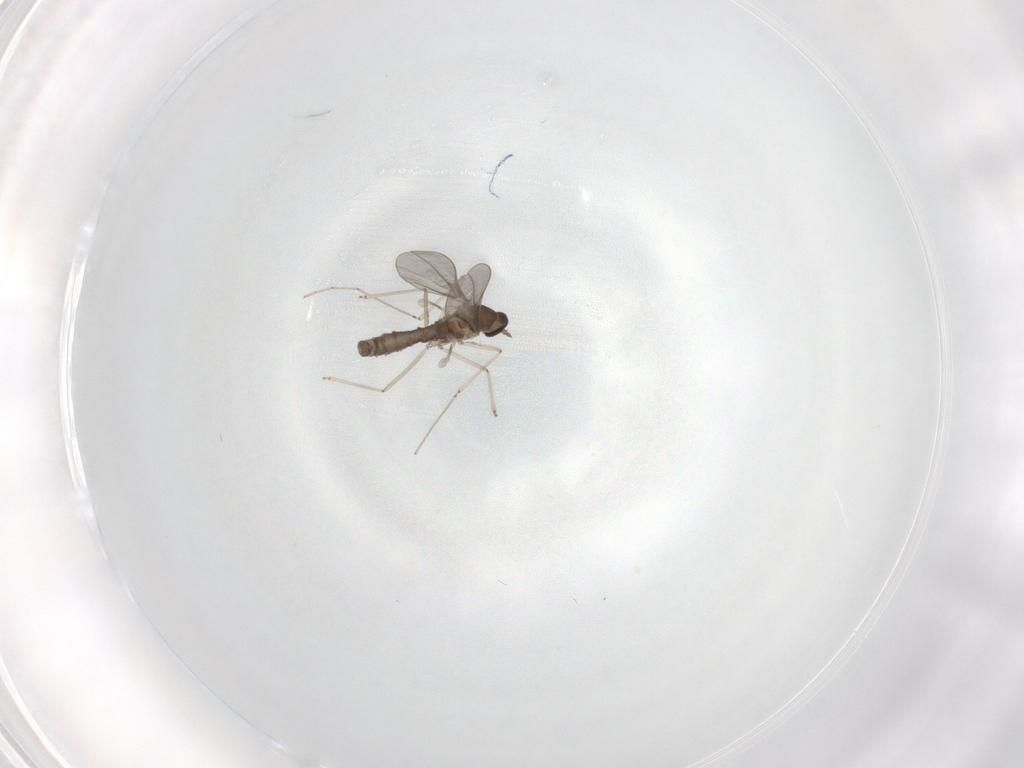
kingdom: Animalia
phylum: Arthropoda
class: Insecta
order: Diptera
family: Cecidomyiidae
